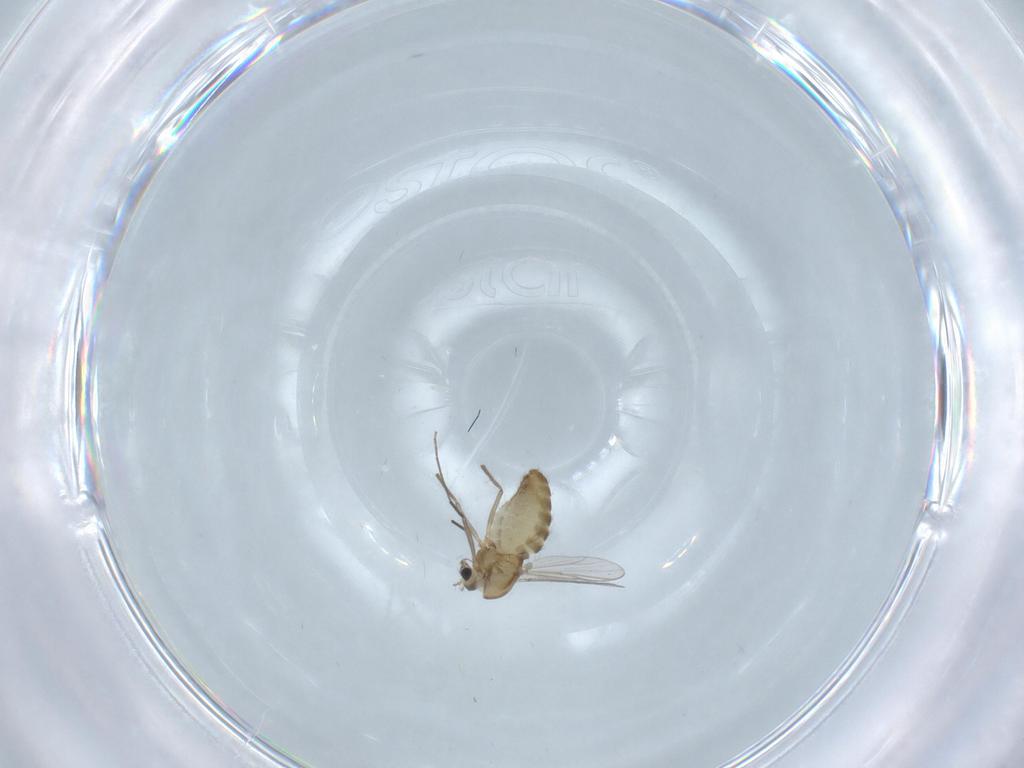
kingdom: Animalia
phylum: Arthropoda
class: Insecta
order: Diptera
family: Chironomidae
